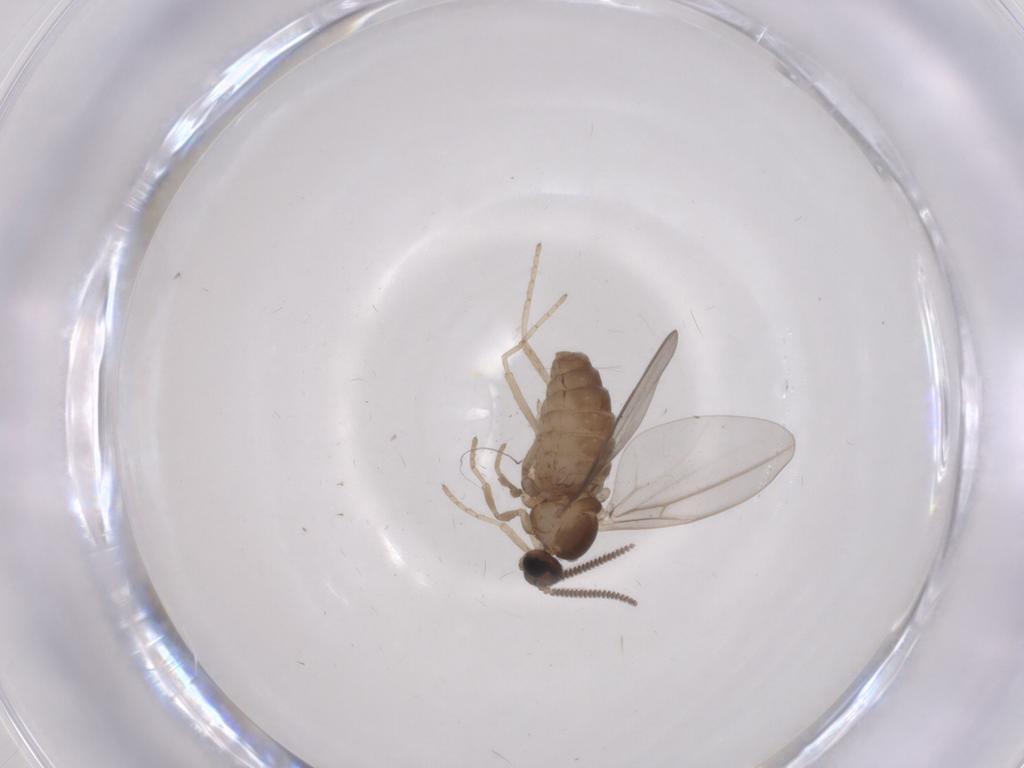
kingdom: Animalia
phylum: Arthropoda
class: Insecta
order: Diptera
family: Cecidomyiidae
